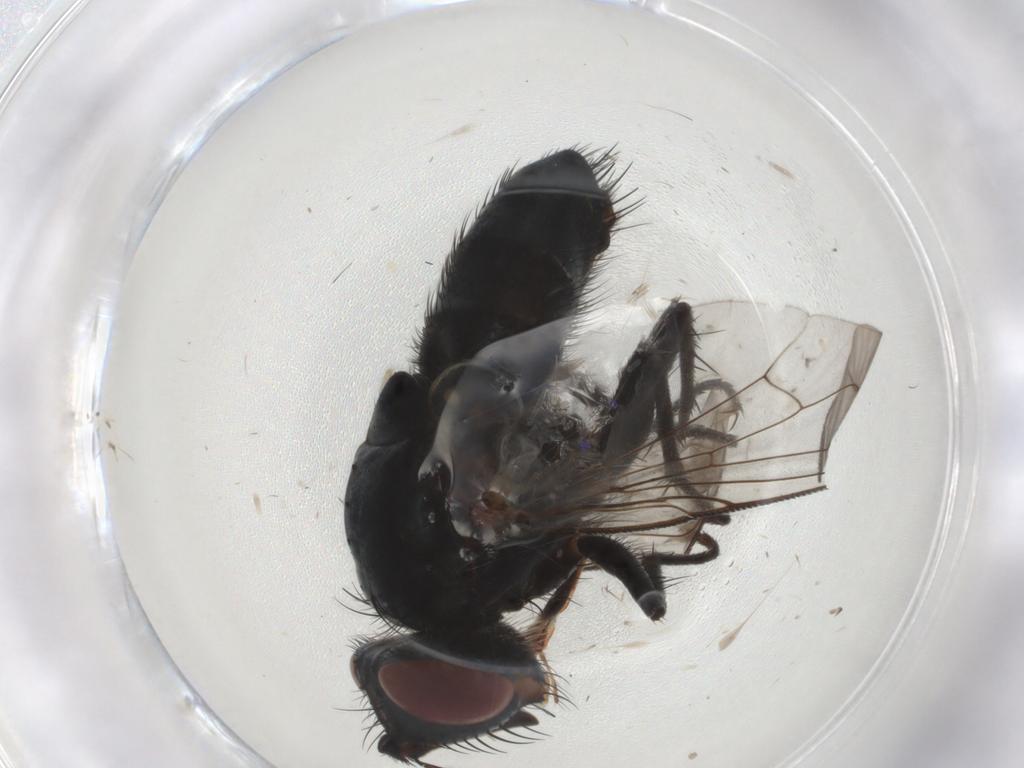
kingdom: Animalia
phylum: Arthropoda
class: Insecta
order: Diptera
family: Tachinidae
